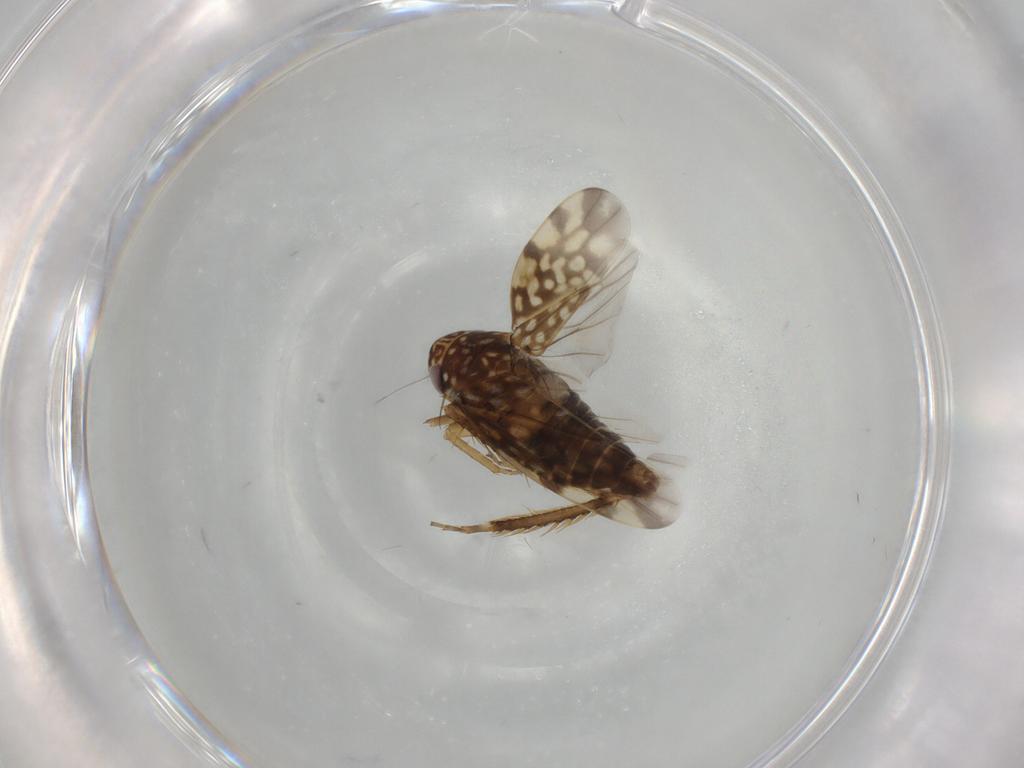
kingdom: Animalia
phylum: Arthropoda
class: Insecta
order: Hemiptera
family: Cicadellidae
